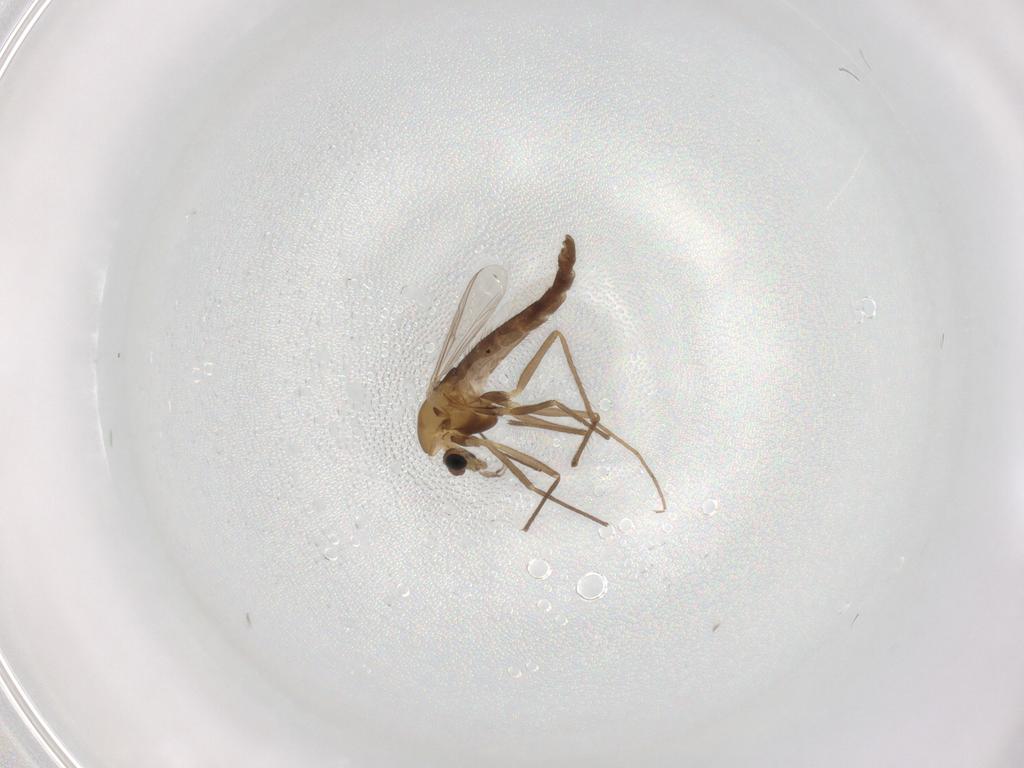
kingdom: Animalia
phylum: Arthropoda
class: Insecta
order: Diptera
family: Chironomidae
